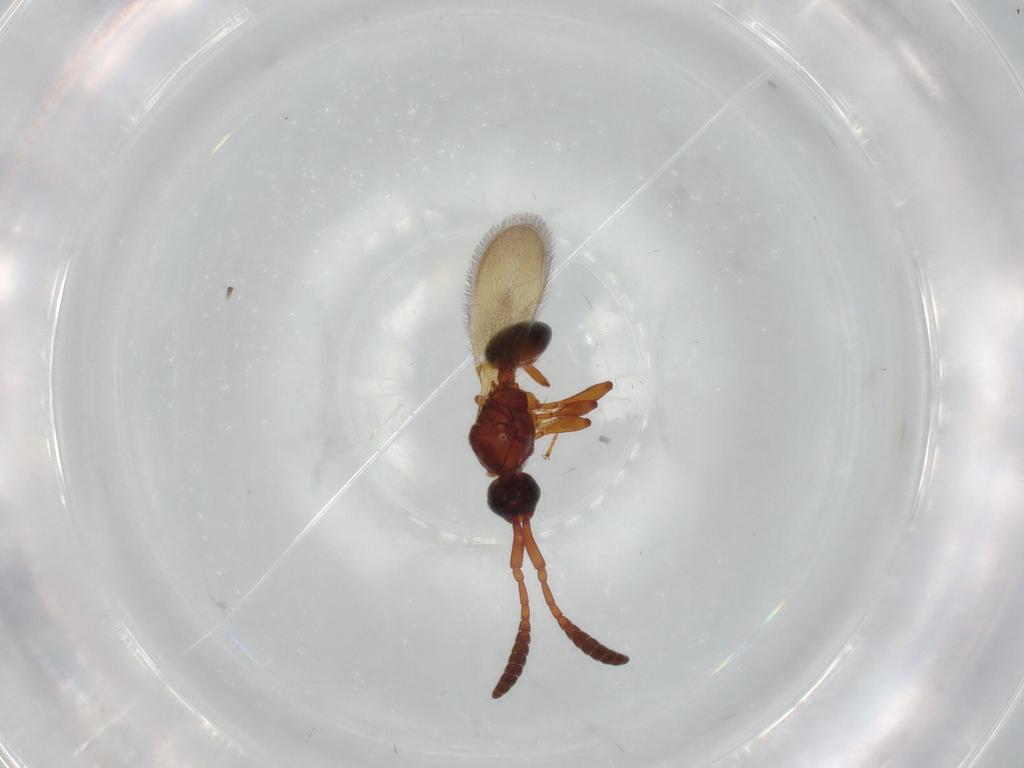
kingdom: Animalia
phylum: Arthropoda
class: Insecta
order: Hymenoptera
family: Diapriidae
